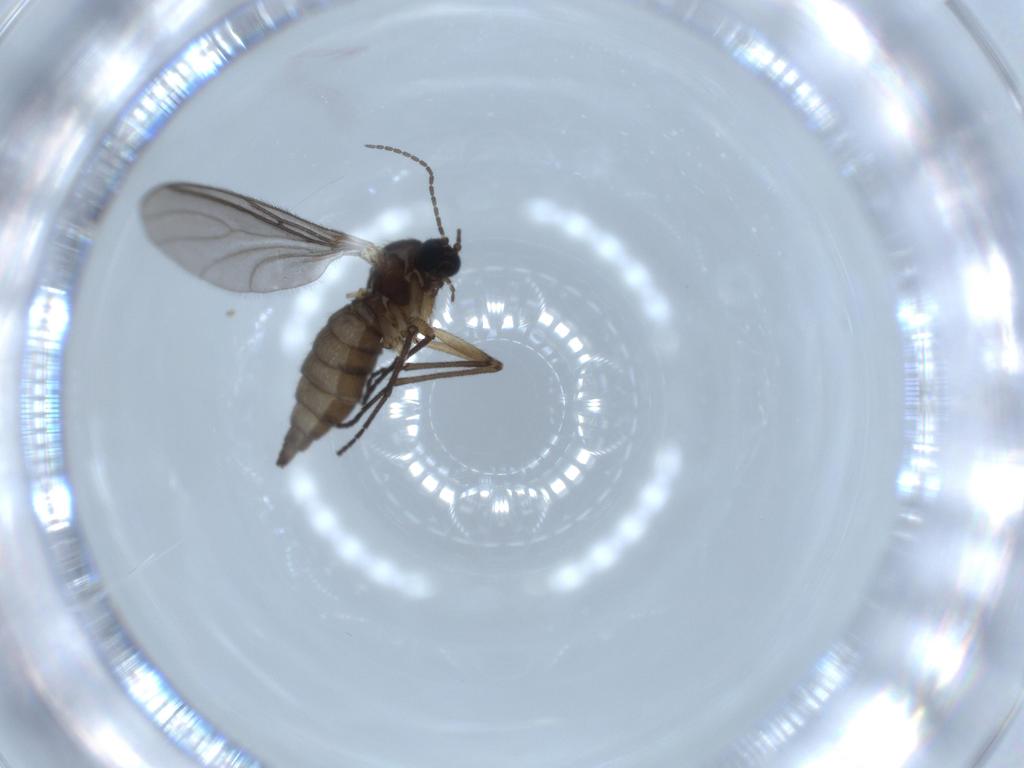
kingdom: Animalia
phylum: Arthropoda
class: Insecta
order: Diptera
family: Sciaridae
